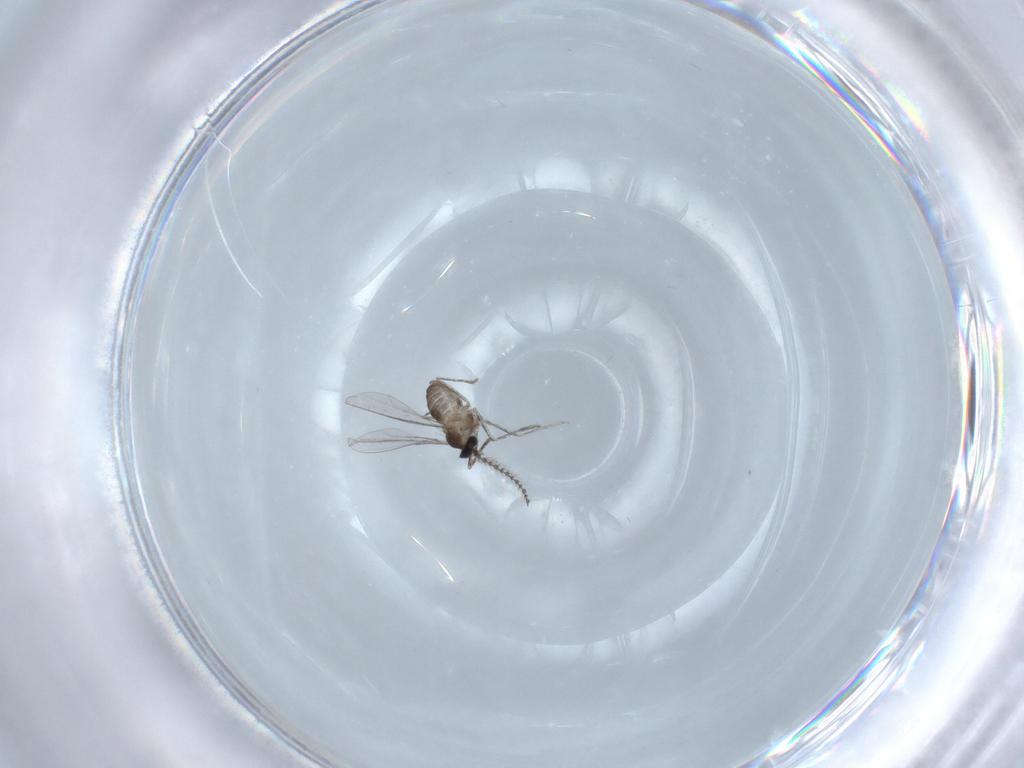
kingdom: Animalia
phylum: Arthropoda
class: Insecta
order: Diptera
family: Cecidomyiidae
